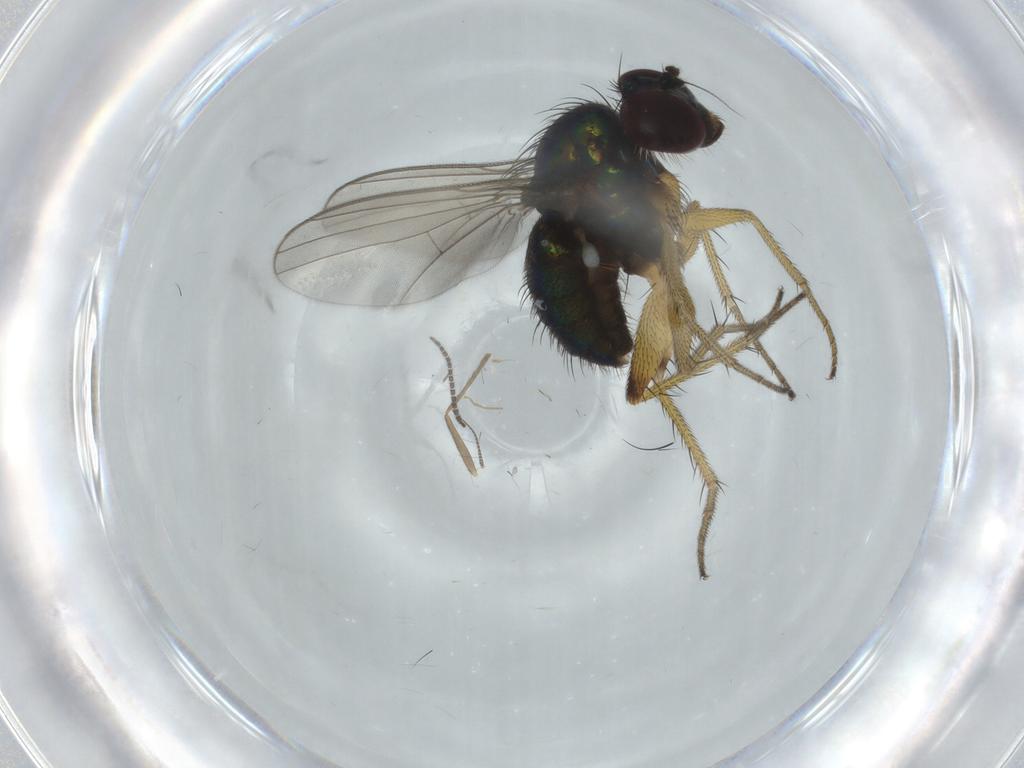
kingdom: Animalia
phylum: Arthropoda
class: Insecta
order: Diptera
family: Dolichopodidae
